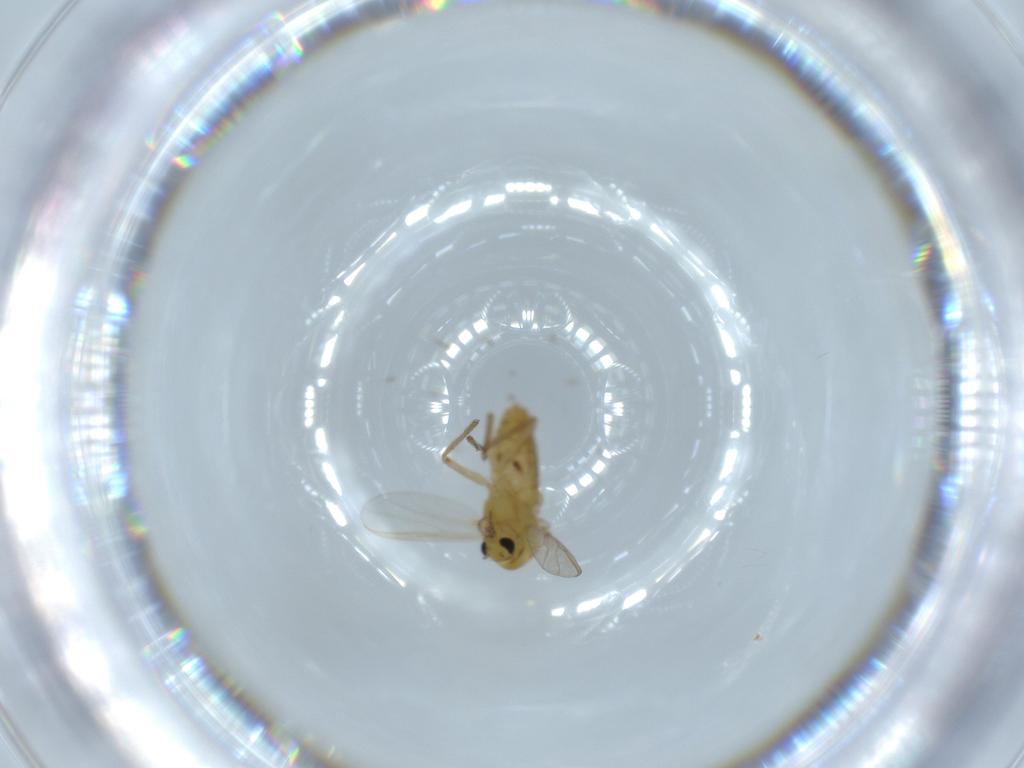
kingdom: Animalia
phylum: Arthropoda
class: Insecta
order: Diptera
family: Chironomidae
